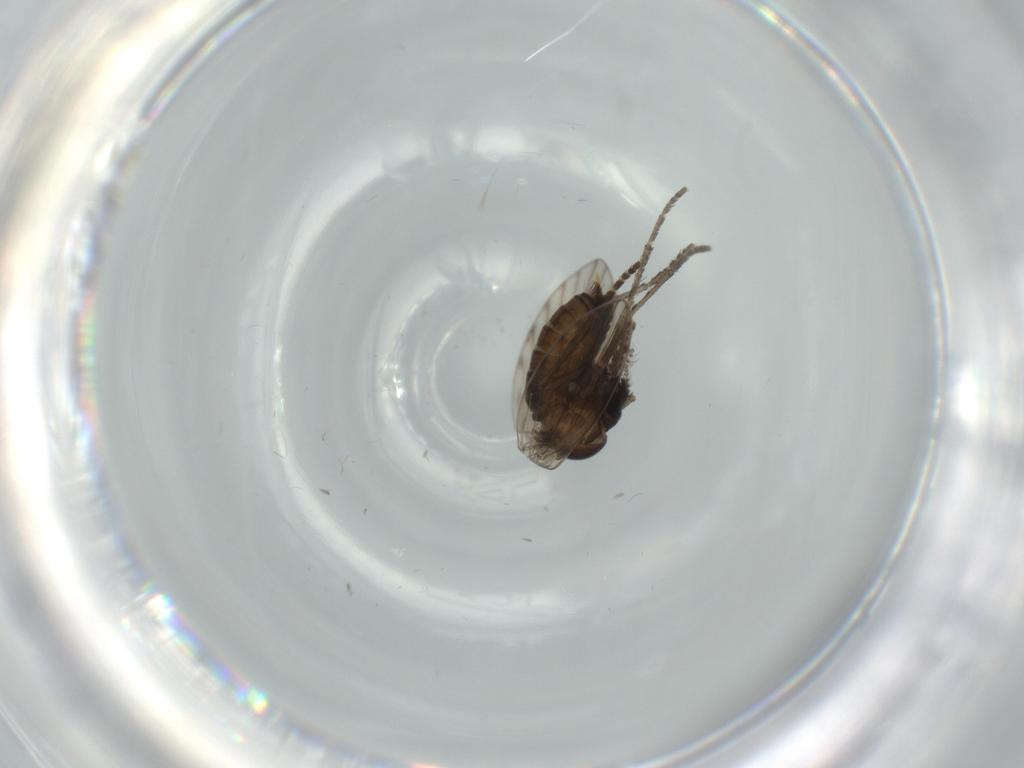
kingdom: Animalia
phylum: Arthropoda
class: Insecta
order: Diptera
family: Psychodidae
